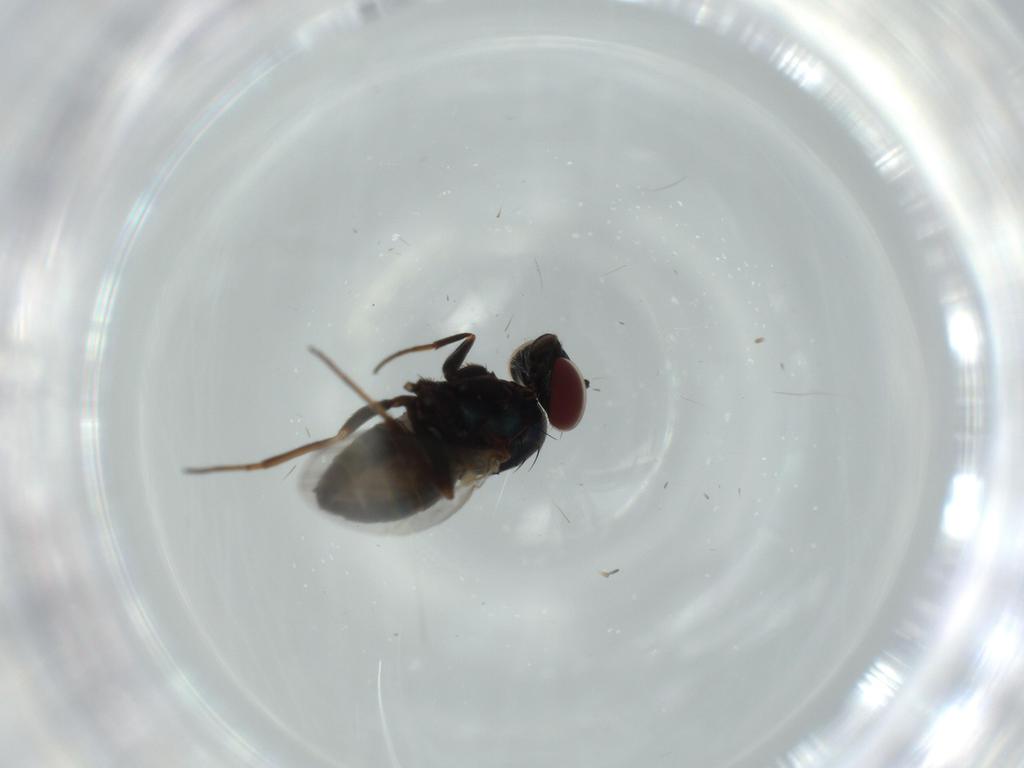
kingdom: Animalia
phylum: Arthropoda
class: Insecta
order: Diptera
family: Dolichopodidae
